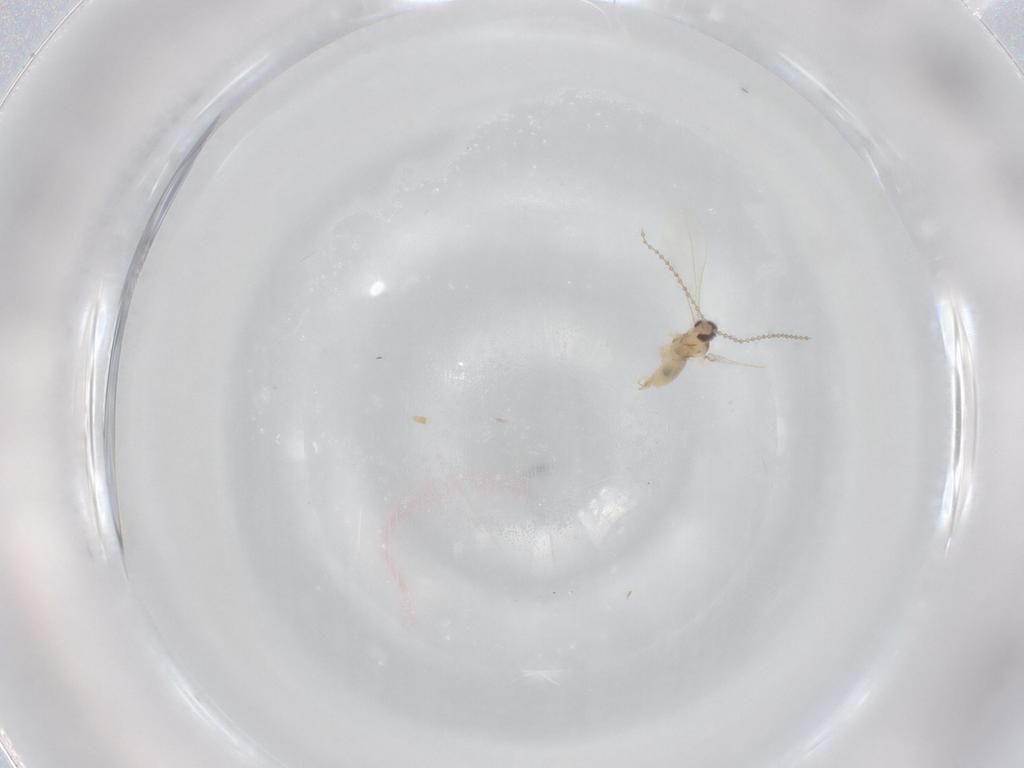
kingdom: Animalia
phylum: Arthropoda
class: Insecta
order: Diptera
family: Cecidomyiidae
